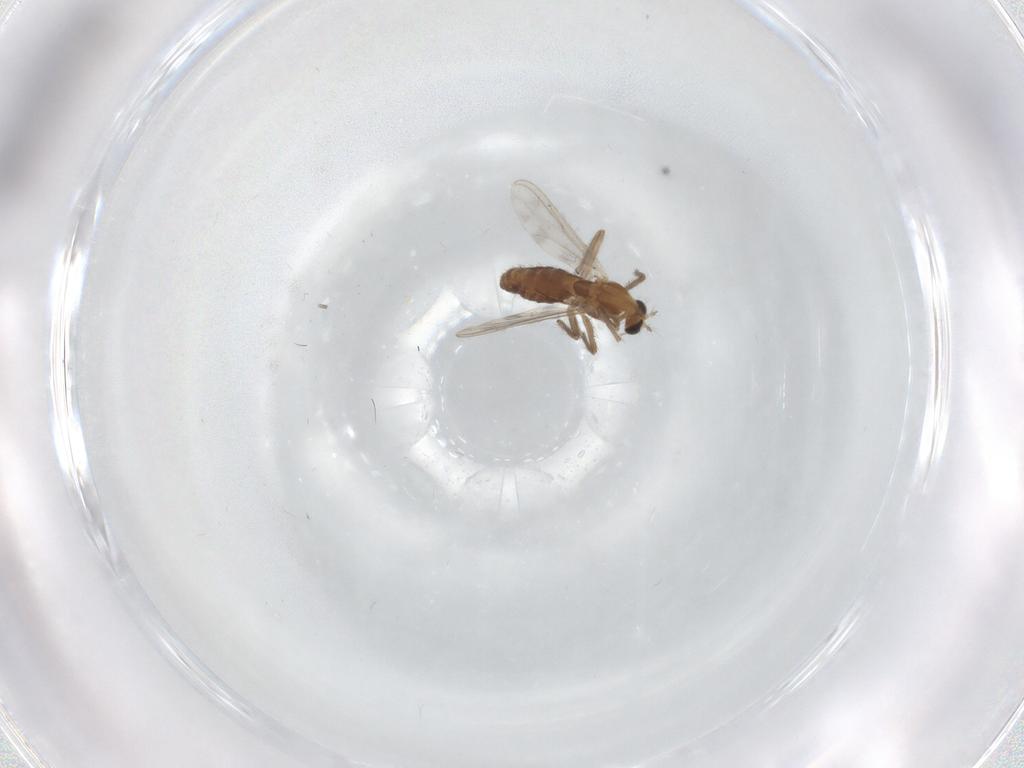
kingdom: Animalia
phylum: Arthropoda
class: Insecta
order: Diptera
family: Chironomidae
